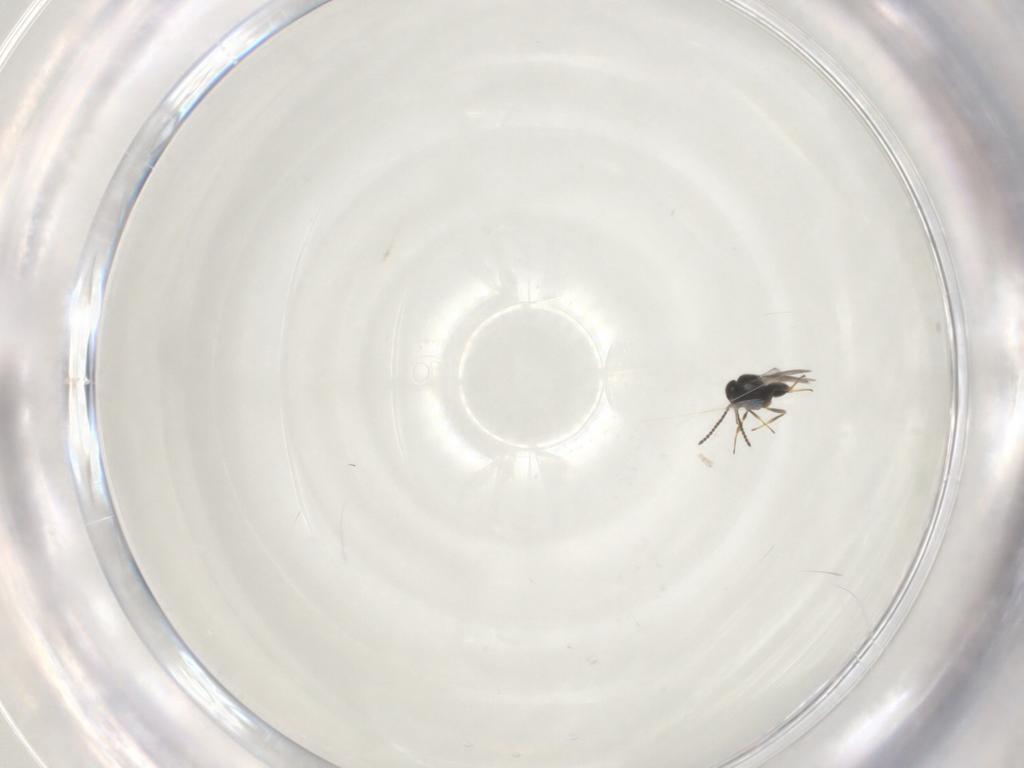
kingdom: Animalia
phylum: Arthropoda
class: Insecta
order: Hymenoptera
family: Scelionidae
